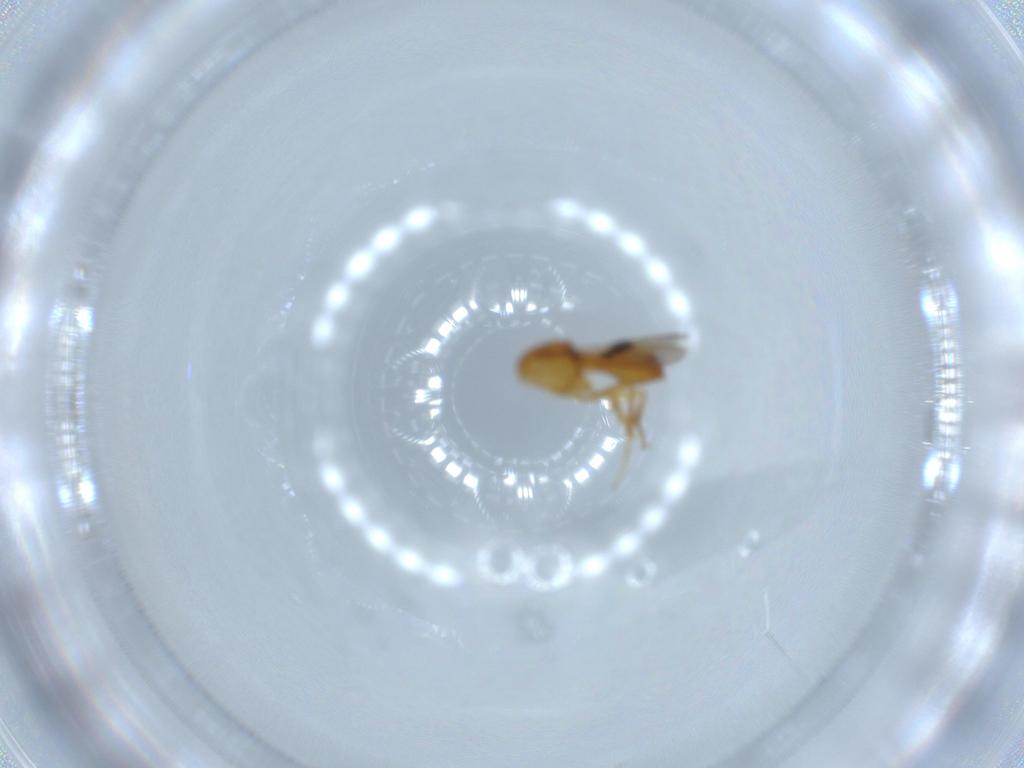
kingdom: Animalia
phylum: Arthropoda
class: Insecta
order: Hymenoptera
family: Scelionidae
